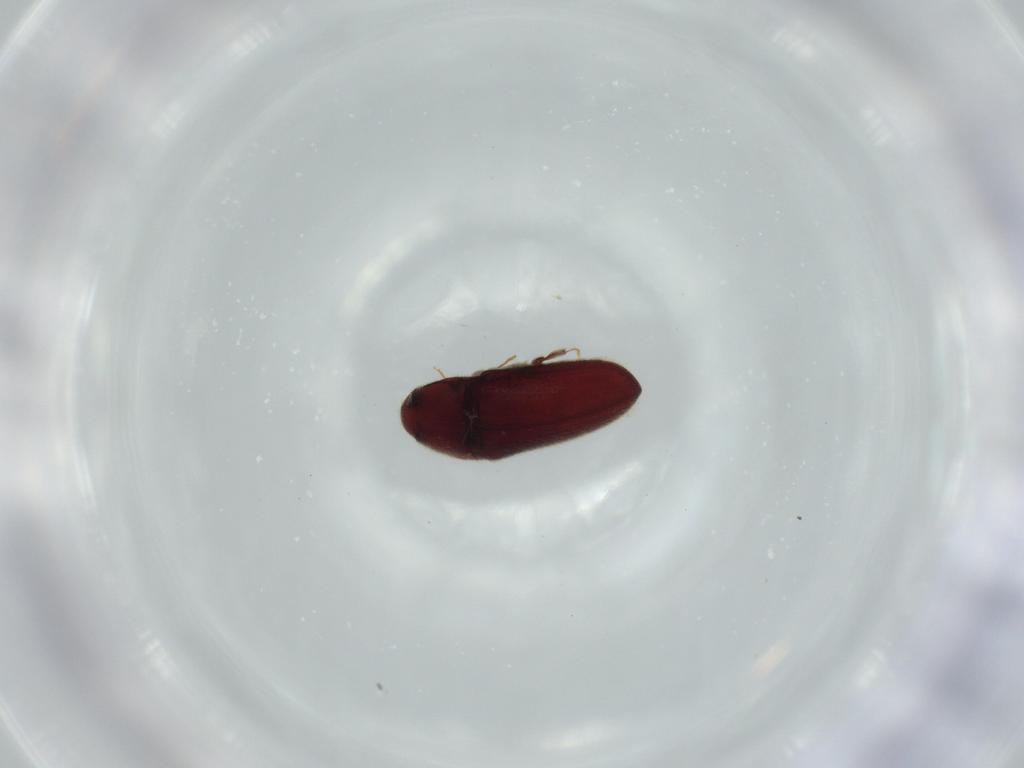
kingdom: Animalia
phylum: Arthropoda
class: Insecta
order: Coleoptera
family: Throscidae
